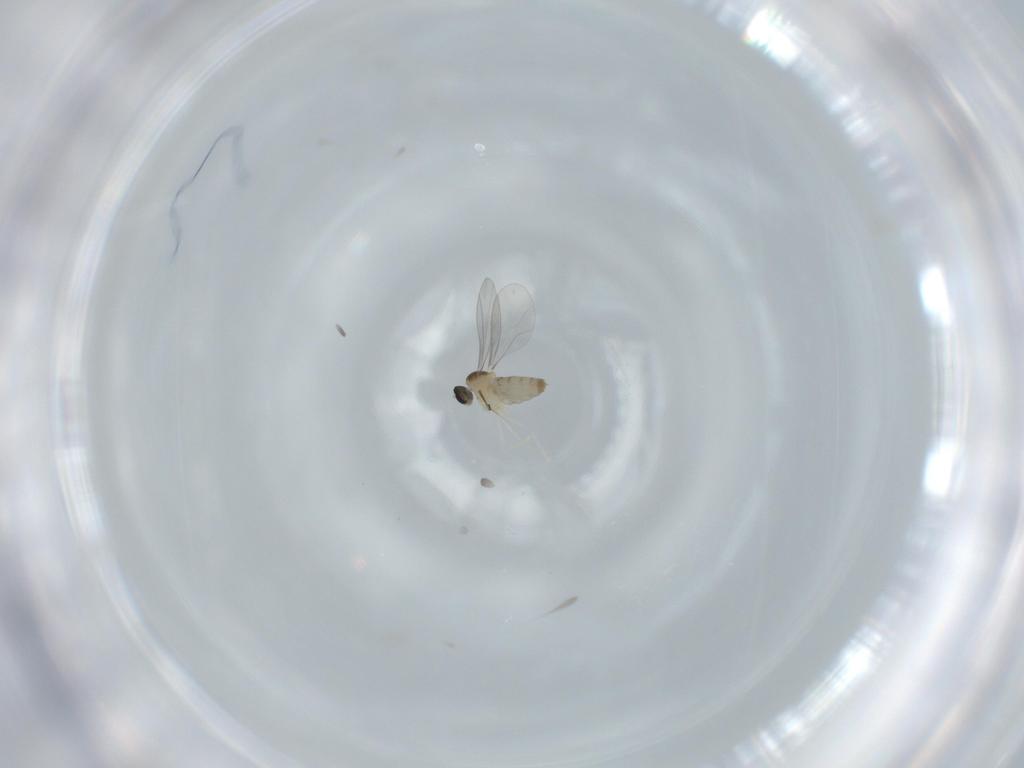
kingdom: Animalia
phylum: Arthropoda
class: Insecta
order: Diptera
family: Cecidomyiidae
